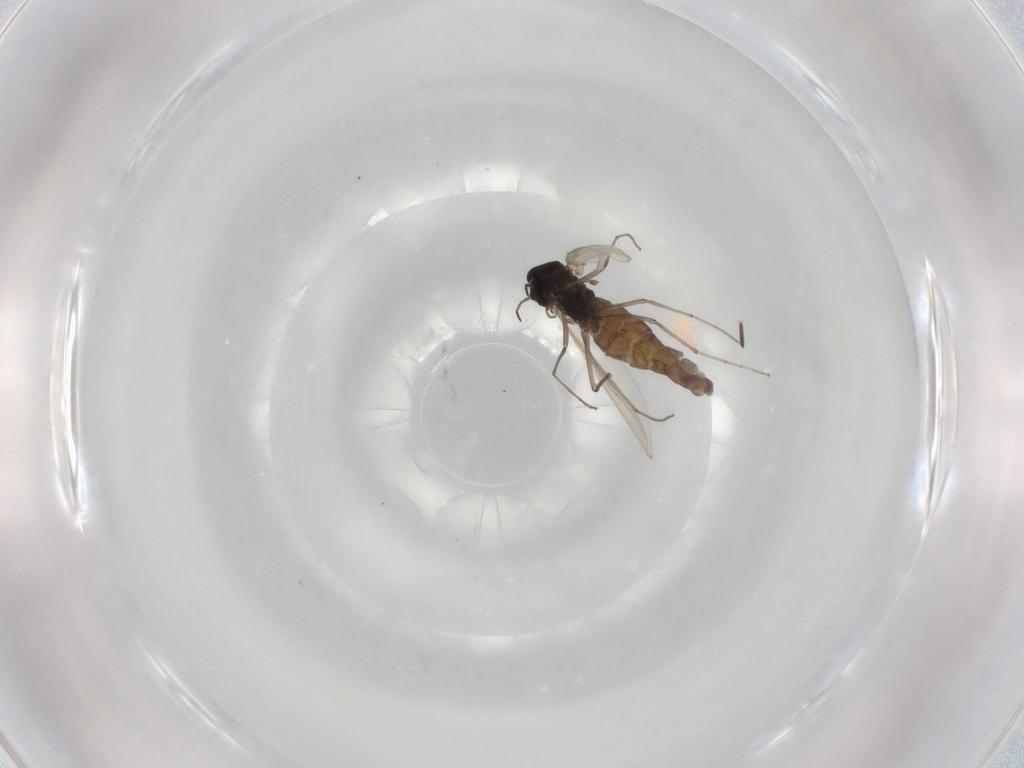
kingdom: Animalia
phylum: Arthropoda
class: Insecta
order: Diptera
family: Chironomidae
